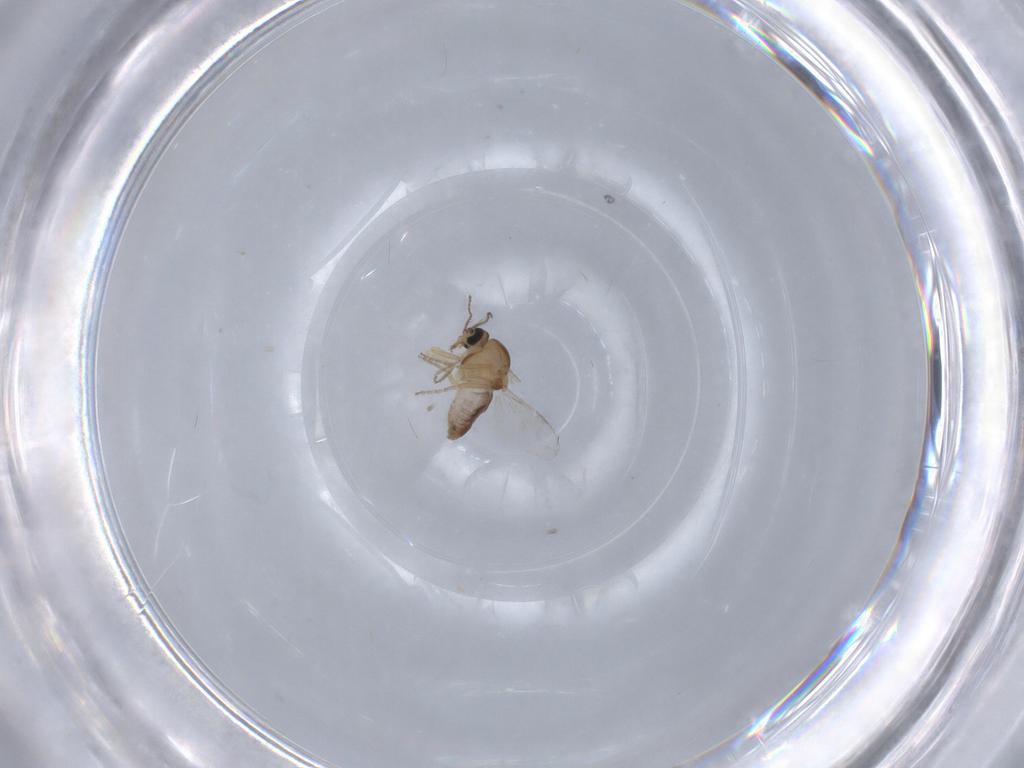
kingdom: Animalia
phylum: Arthropoda
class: Insecta
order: Diptera
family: Ceratopogonidae
